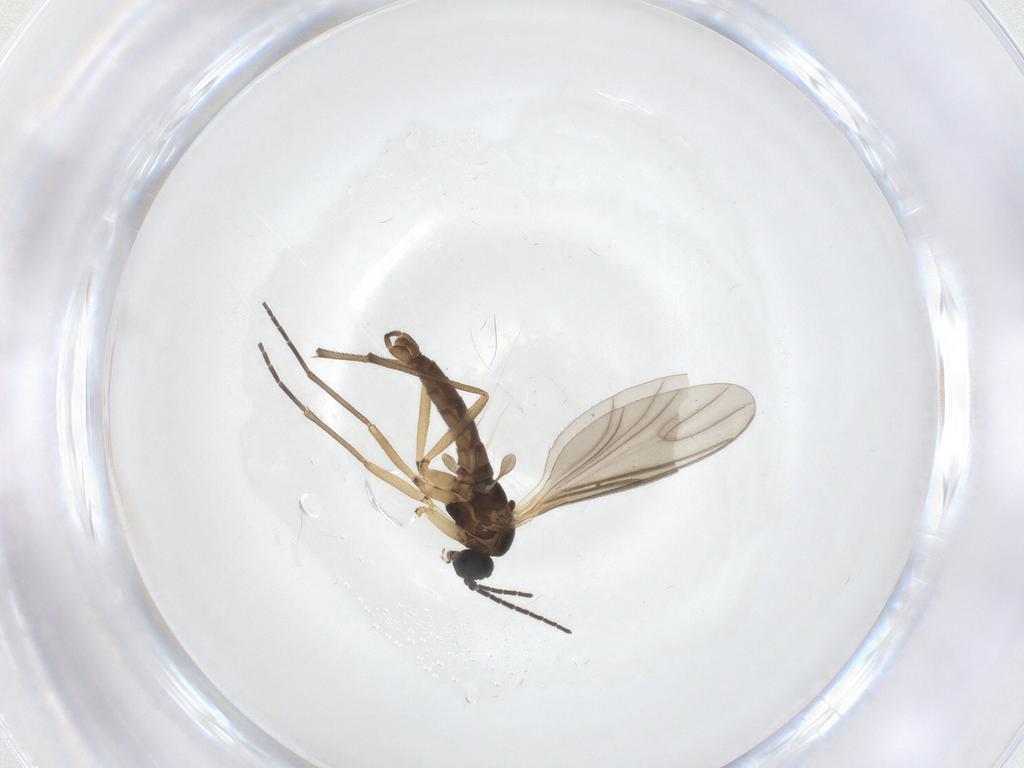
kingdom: Animalia
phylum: Arthropoda
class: Insecta
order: Diptera
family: Sciaridae
